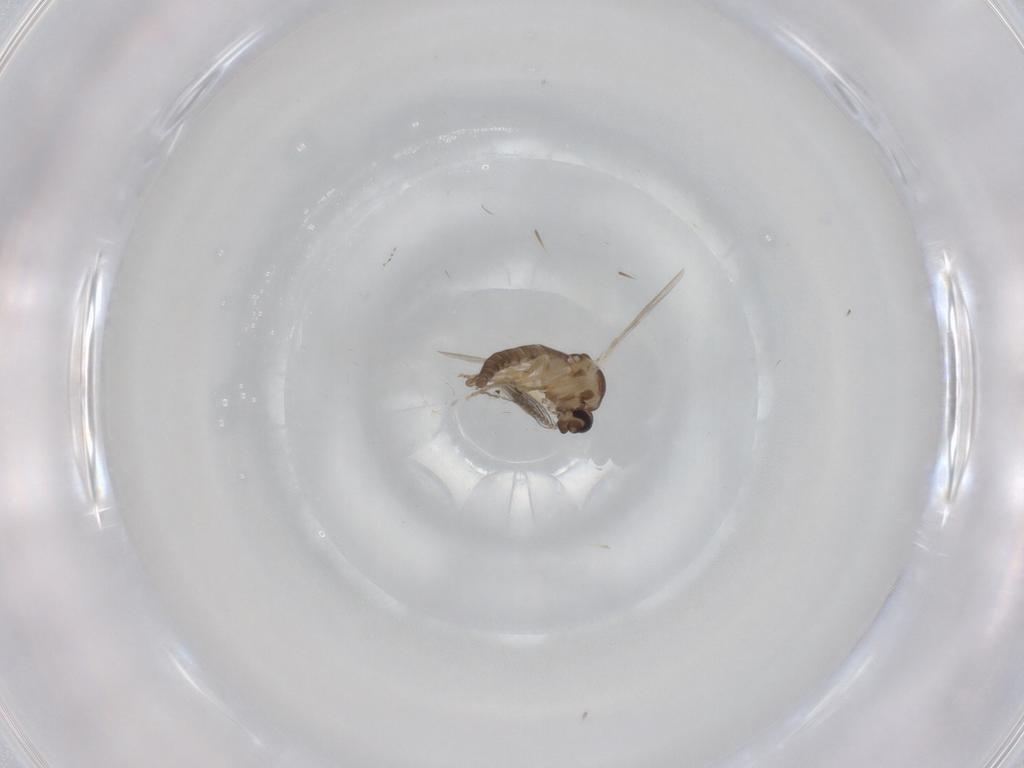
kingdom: Animalia
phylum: Arthropoda
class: Insecta
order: Diptera
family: Ceratopogonidae
